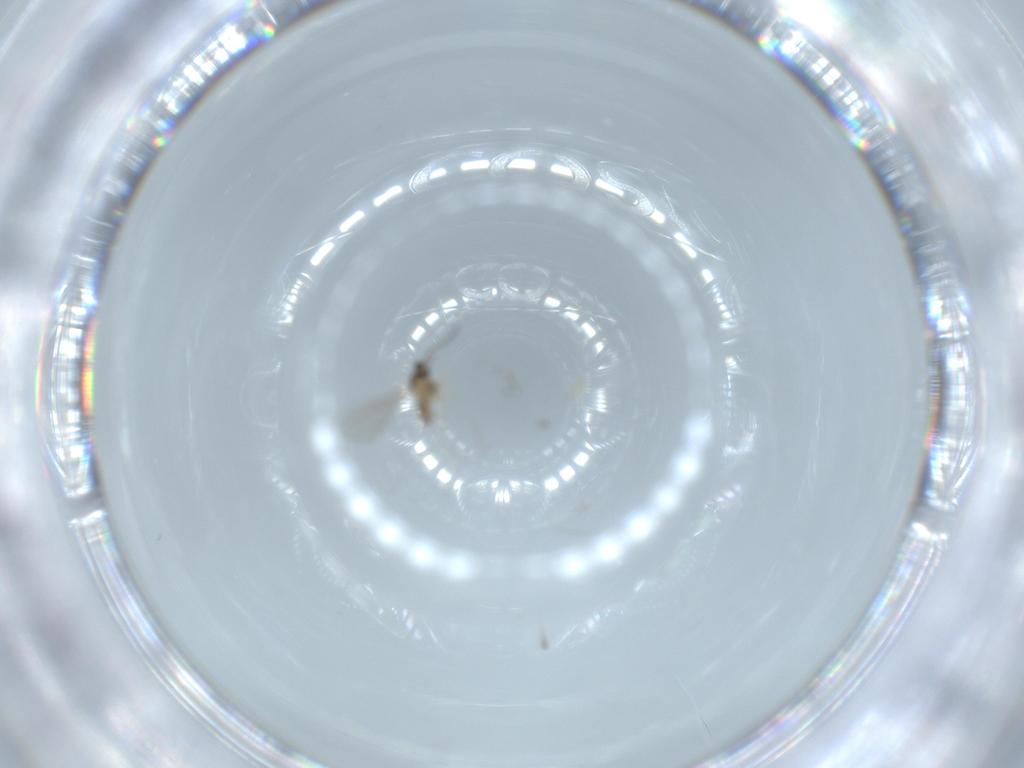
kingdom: Animalia
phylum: Arthropoda
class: Insecta
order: Diptera
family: Cecidomyiidae
